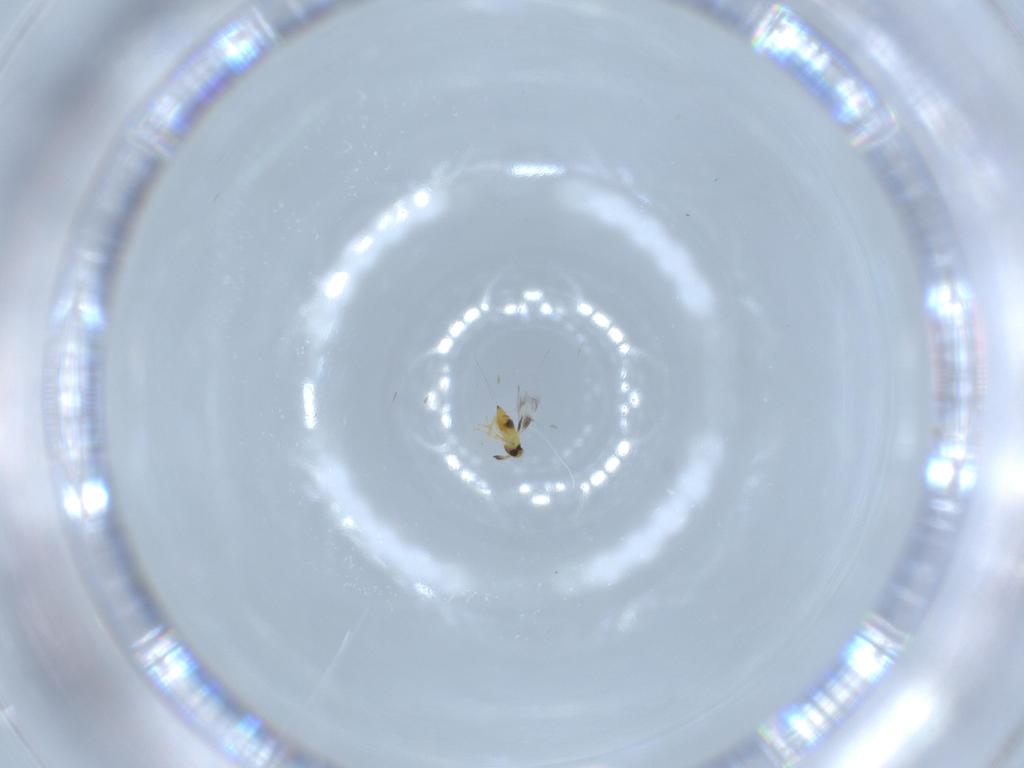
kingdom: Animalia
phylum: Arthropoda
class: Insecta
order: Hymenoptera
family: Signiphoridae
